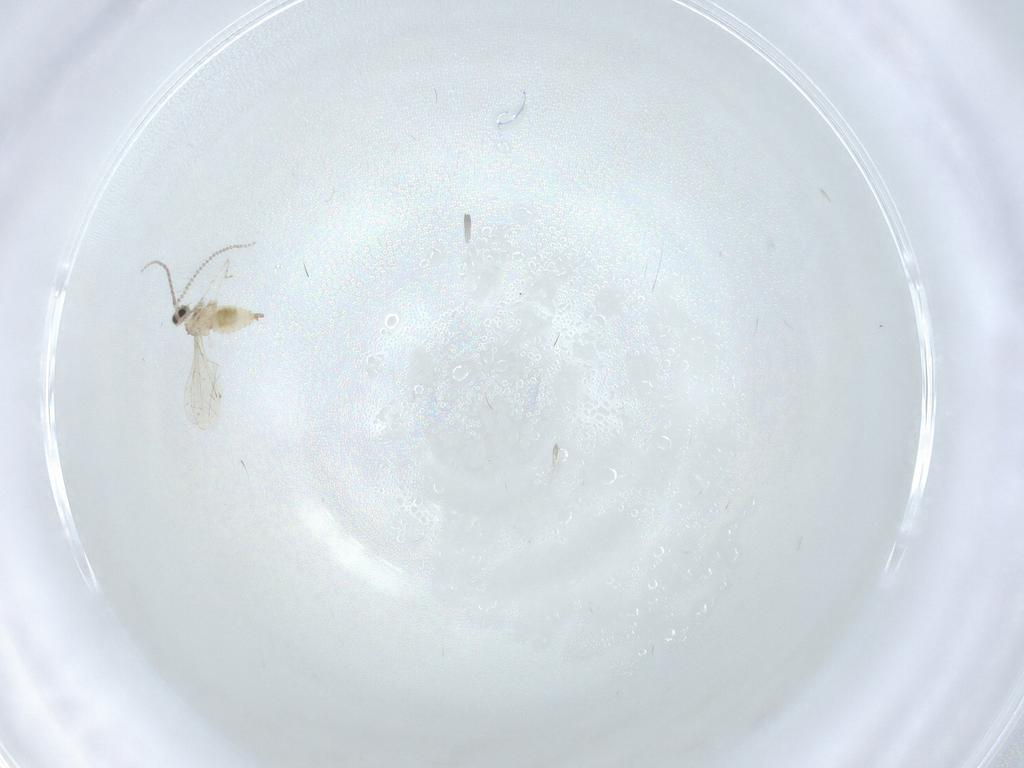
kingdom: Animalia
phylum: Arthropoda
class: Insecta
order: Diptera
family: Cecidomyiidae
